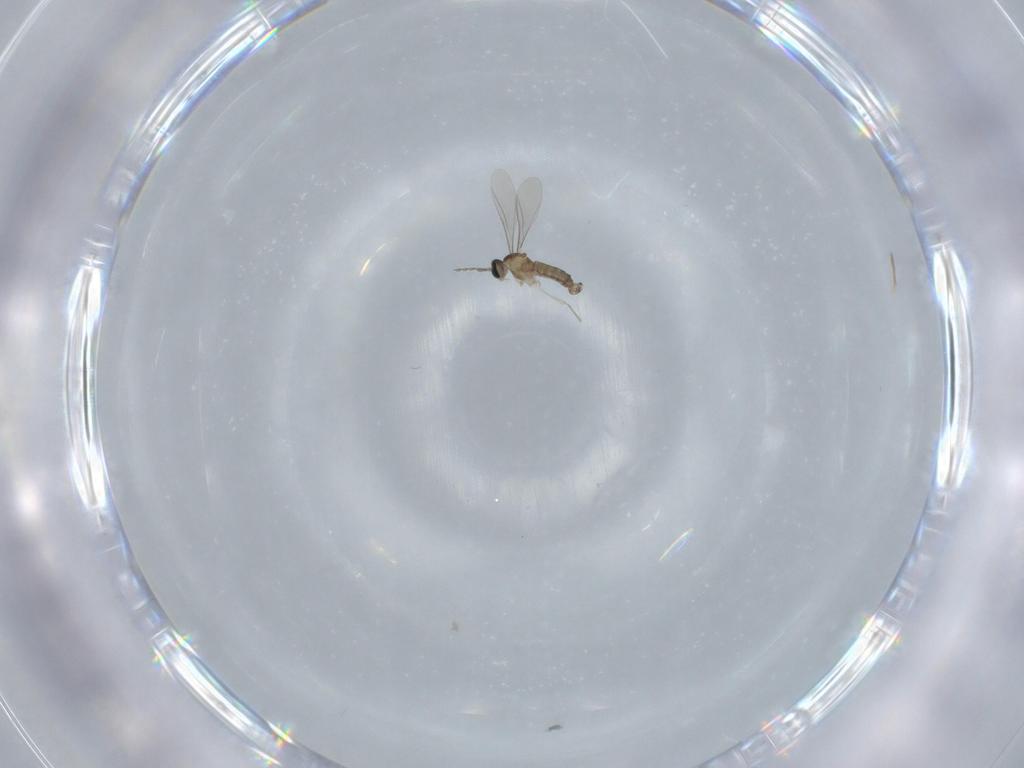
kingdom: Animalia
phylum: Arthropoda
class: Insecta
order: Diptera
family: Cecidomyiidae
